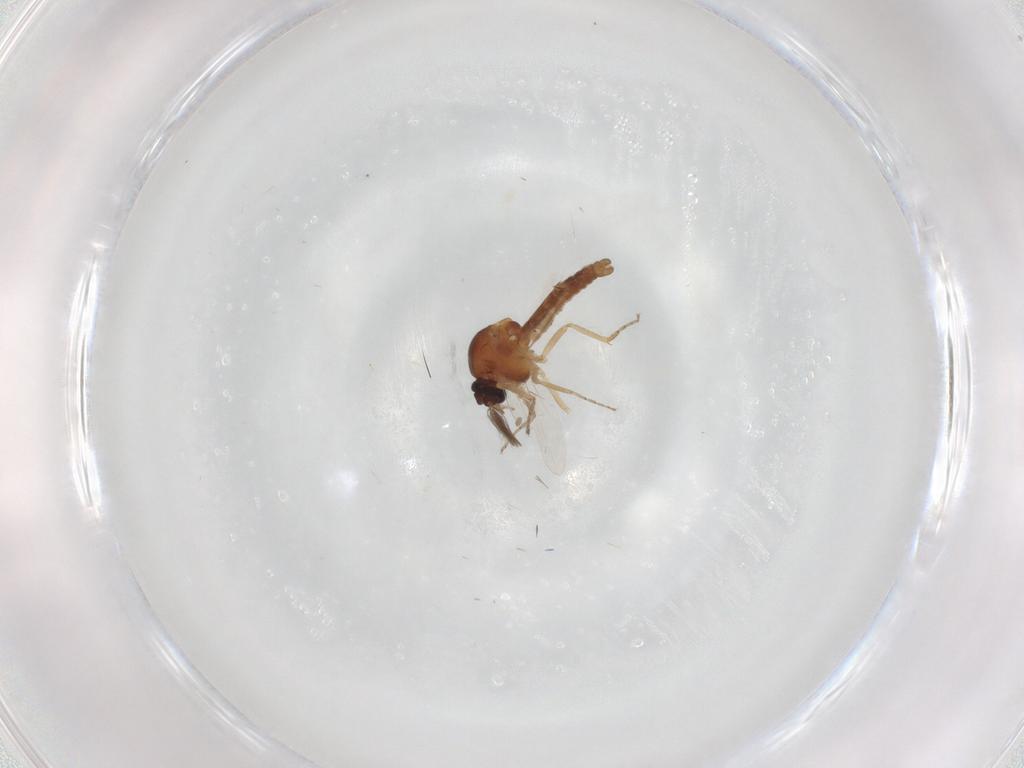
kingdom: Animalia
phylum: Arthropoda
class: Insecta
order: Diptera
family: Ceratopogonidae
